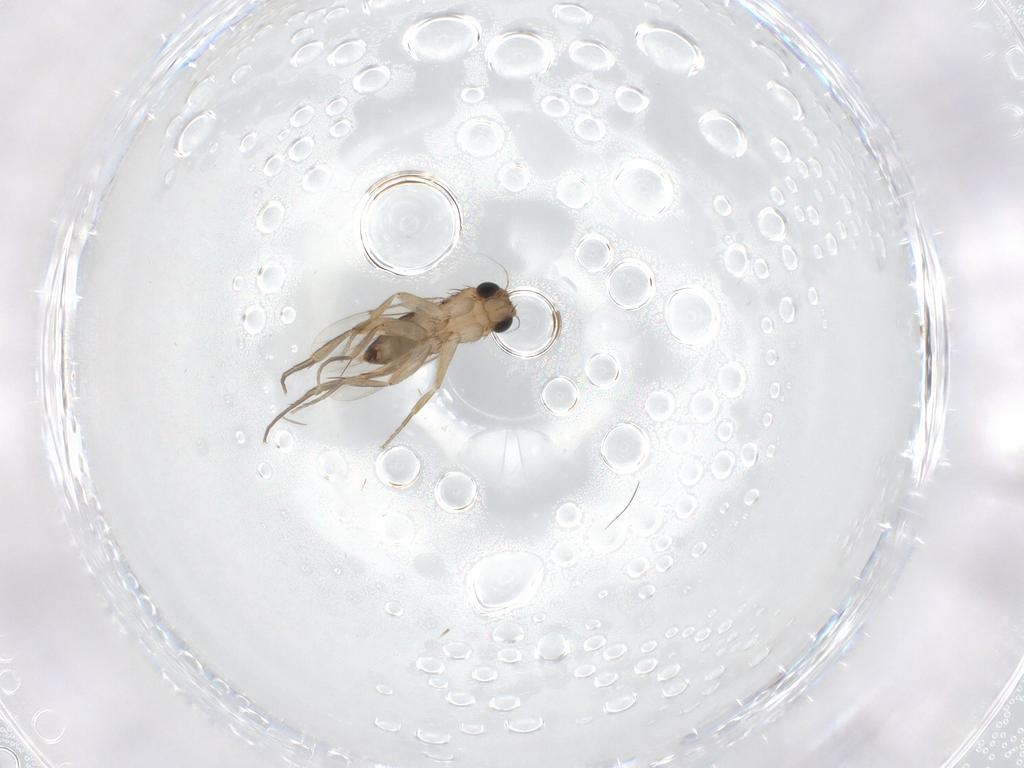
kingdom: Animalia
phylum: Arthropoda
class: Insecta
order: Diptera
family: Phoridae
